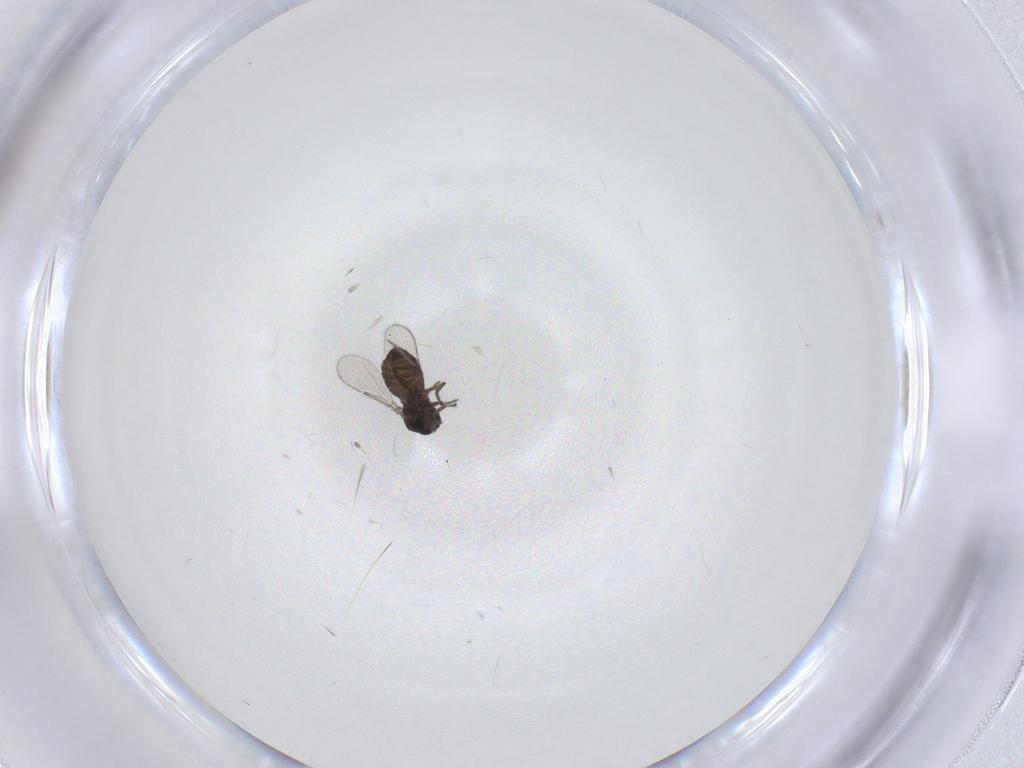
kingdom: Animalia
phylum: Arthropoda
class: Insecta
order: Diptera
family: Ceratopogonidae
